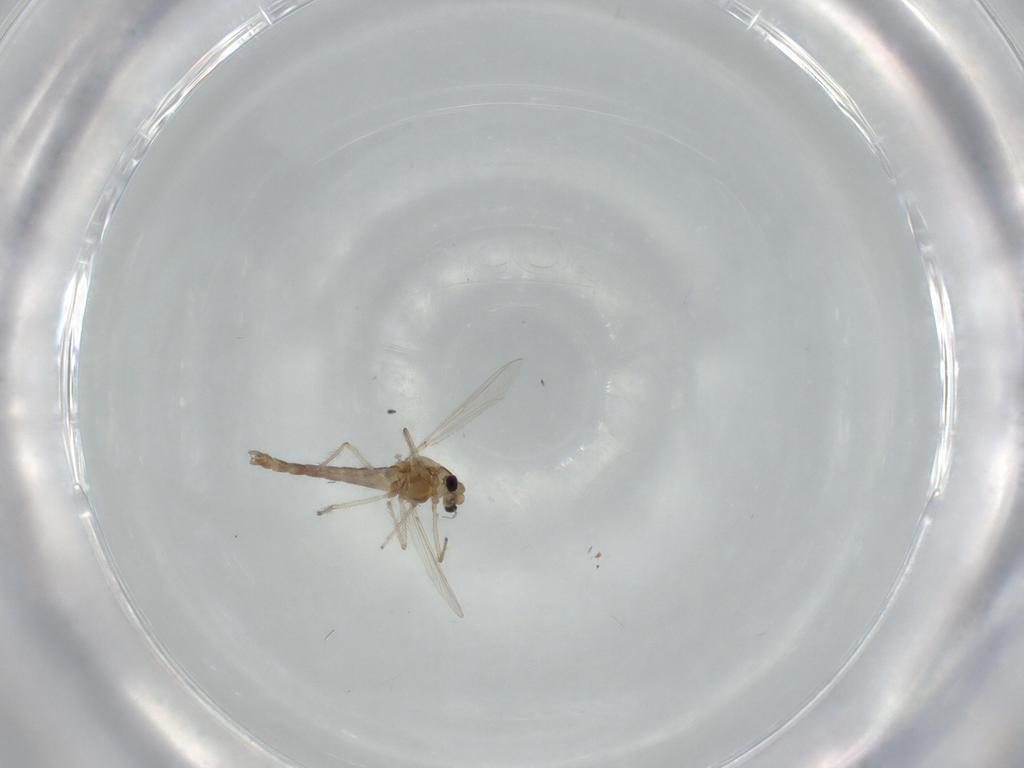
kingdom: Animalia
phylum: Arthropoda
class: Insecta
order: Diptera
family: Chironomidae
